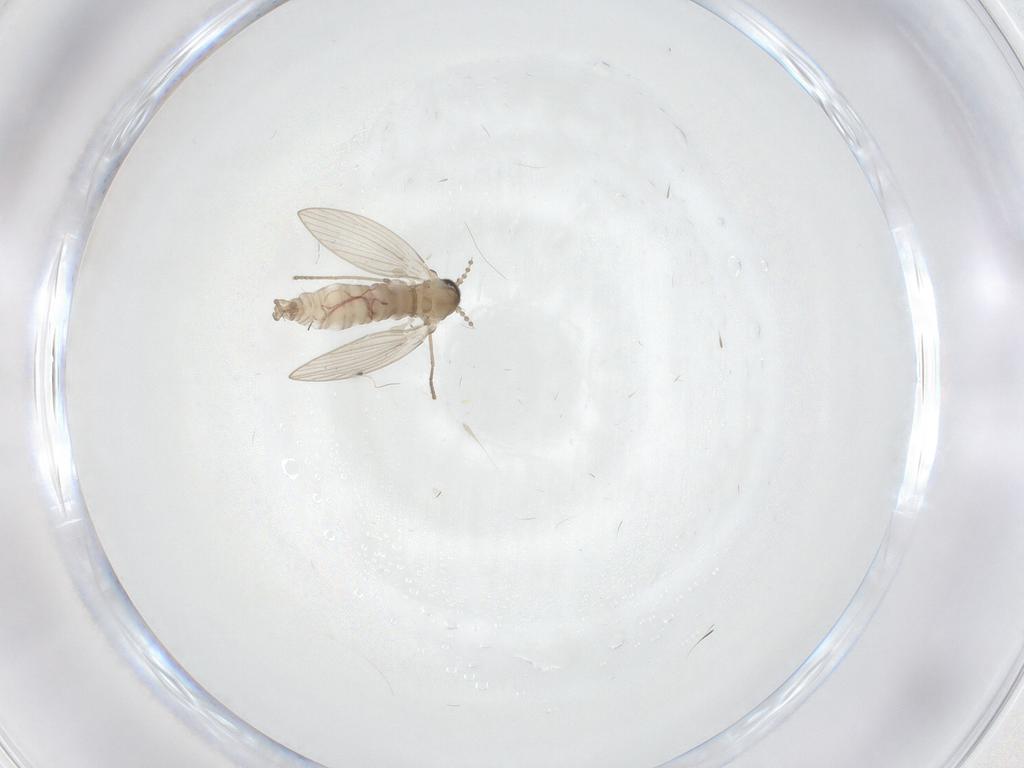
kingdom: Animalia
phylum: Arthropoda
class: Insecta
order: Diptera
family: Psychodidae
